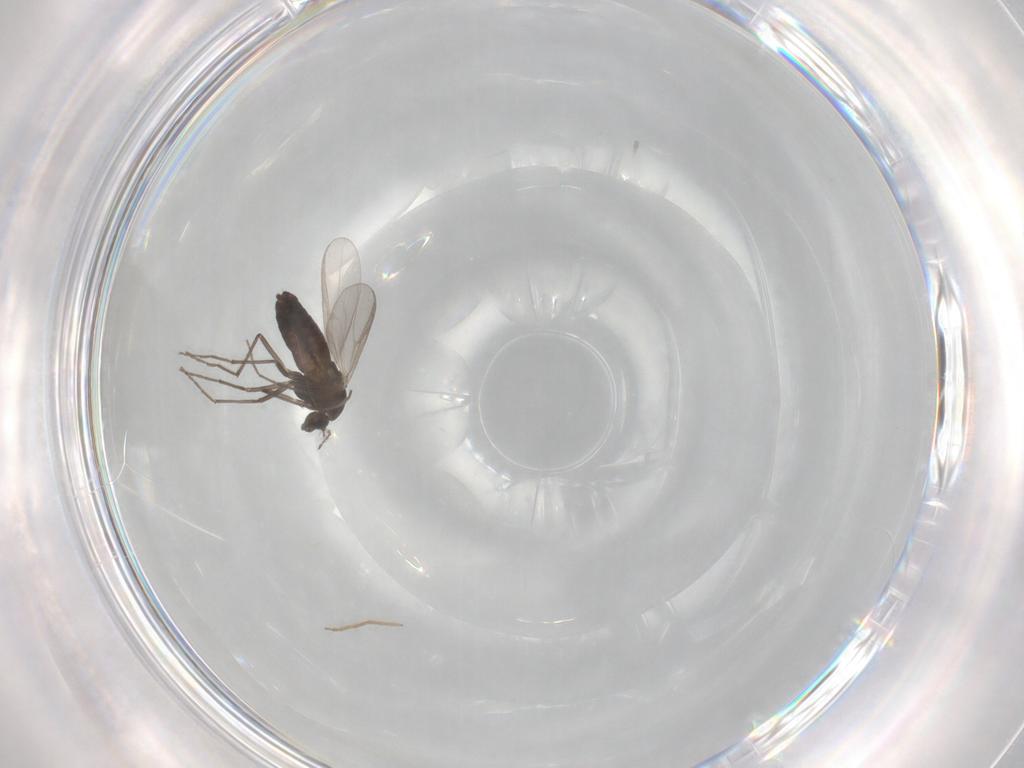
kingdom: Animalia
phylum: Arthropoda
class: Insecta
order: Diptera
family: Chironomidae
